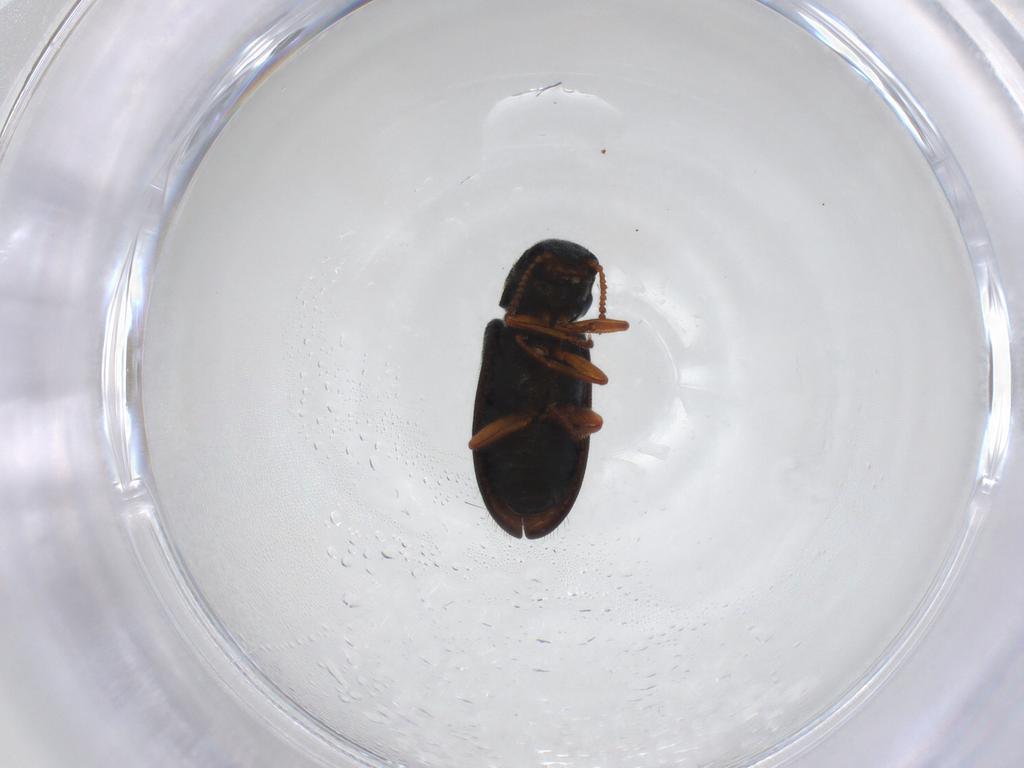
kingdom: Animalia
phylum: Arthropoda
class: Insecta
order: Coleoptera
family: Melyridae
